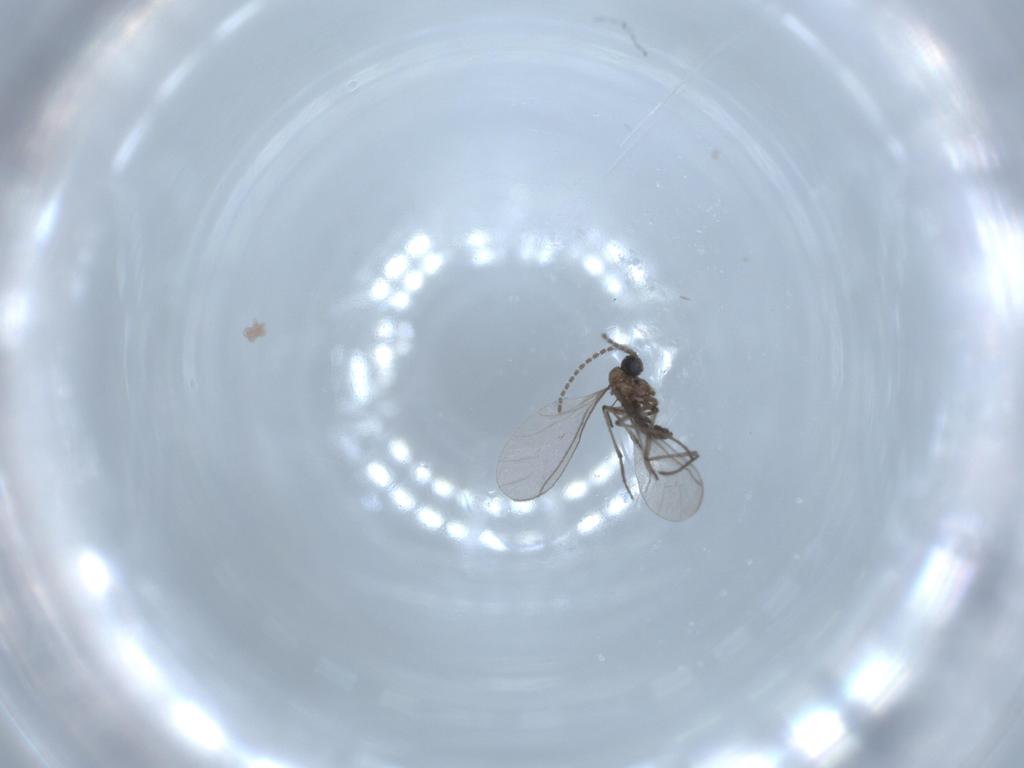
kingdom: Animalia
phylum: Arthropoda
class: Insecta
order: Diptera
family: Sciaridae
